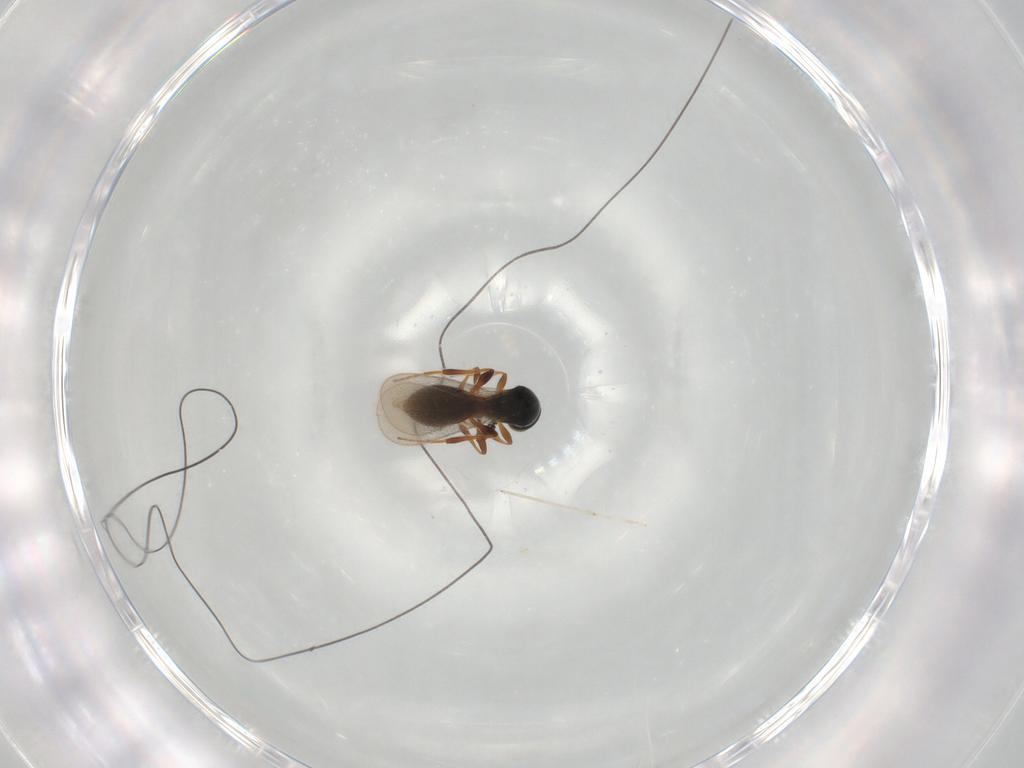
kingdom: Animalia
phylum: Arthropoda
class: Insecta
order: Hymenoptera
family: Platygastridae
